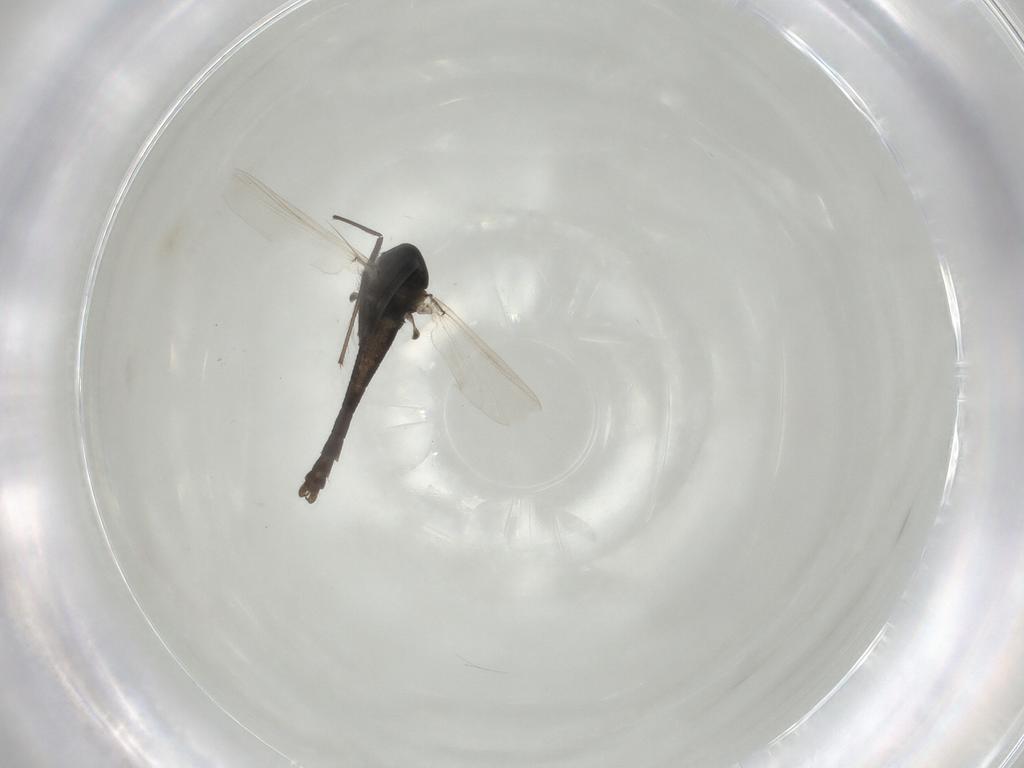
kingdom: Animalia
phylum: Arthropoda
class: Insecta
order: Diptera
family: Chironomidae
